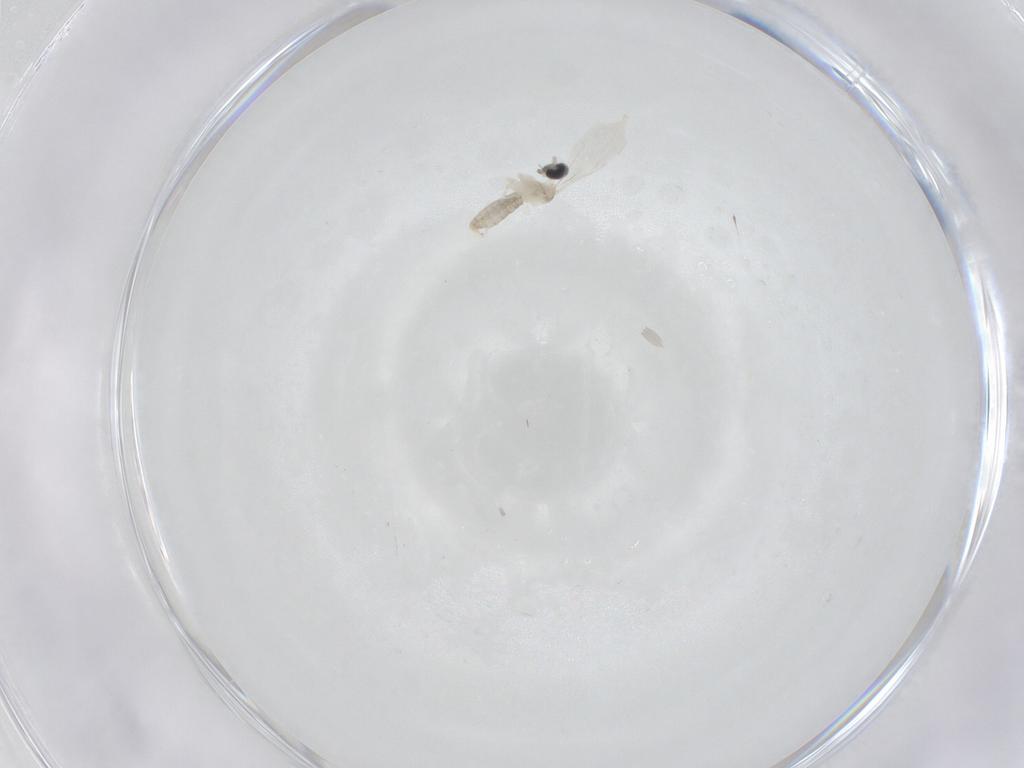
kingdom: Animalia
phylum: Arthropoda
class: Insecta
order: Diptera
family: Cecidomyiidae
